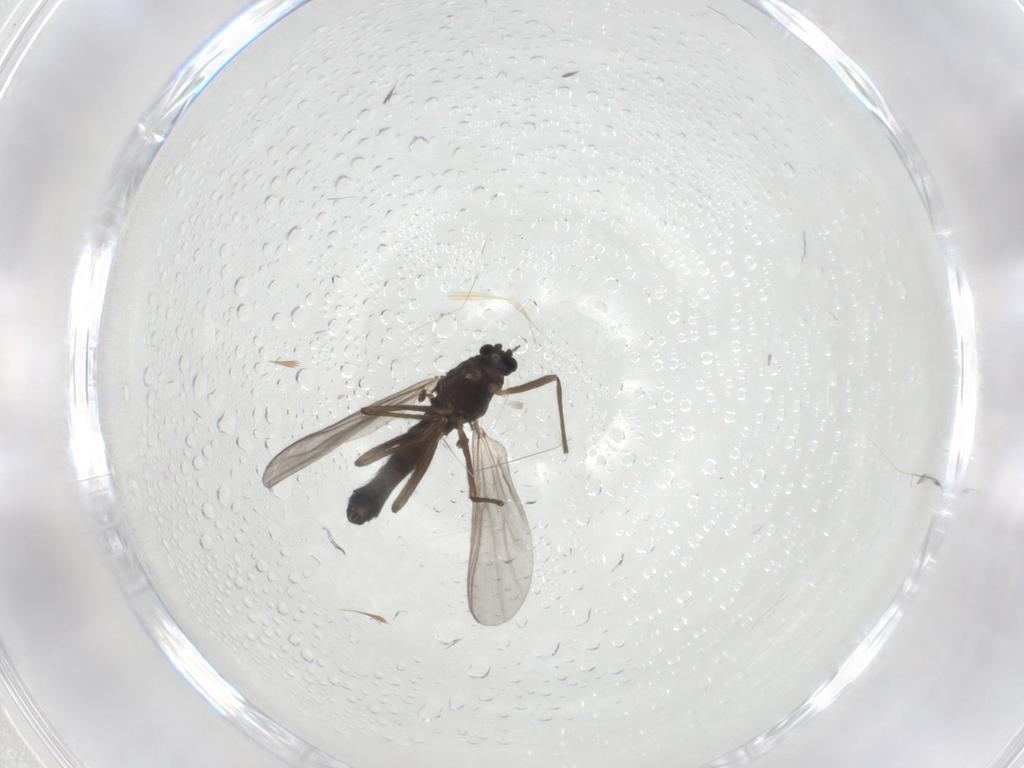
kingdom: Animalia
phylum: Arthropoda
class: Insecta
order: Diptera
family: Chironomidae
